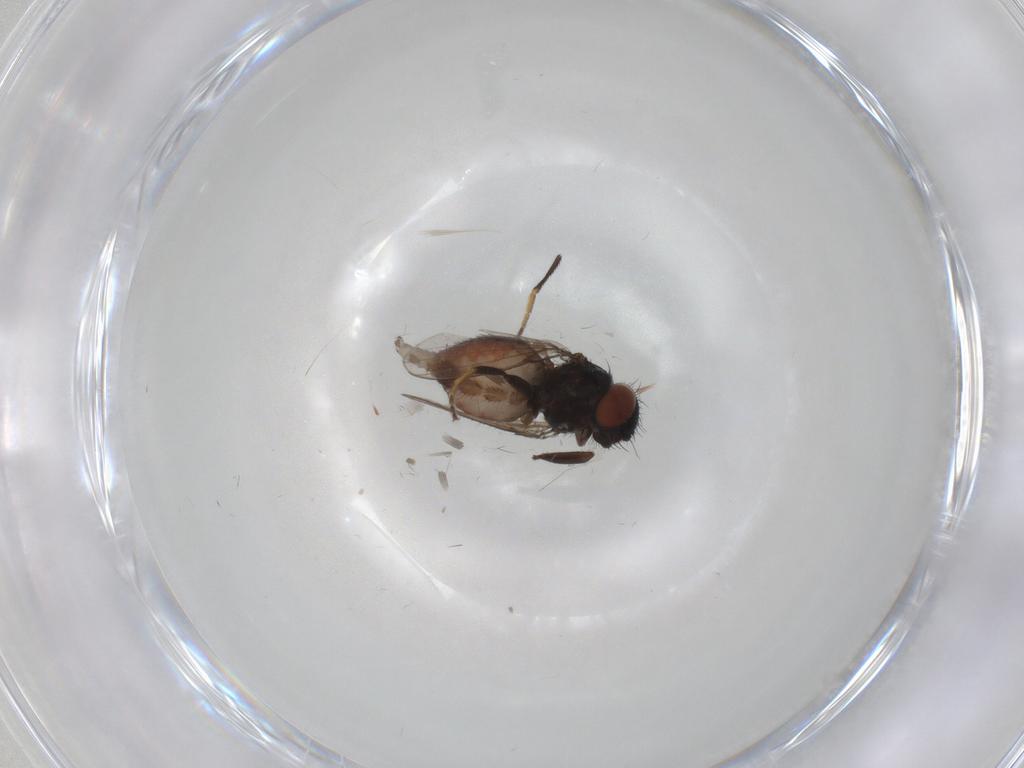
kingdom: Animalia
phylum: Arthropoda
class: Insecta
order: Diptera
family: Milichiidae
